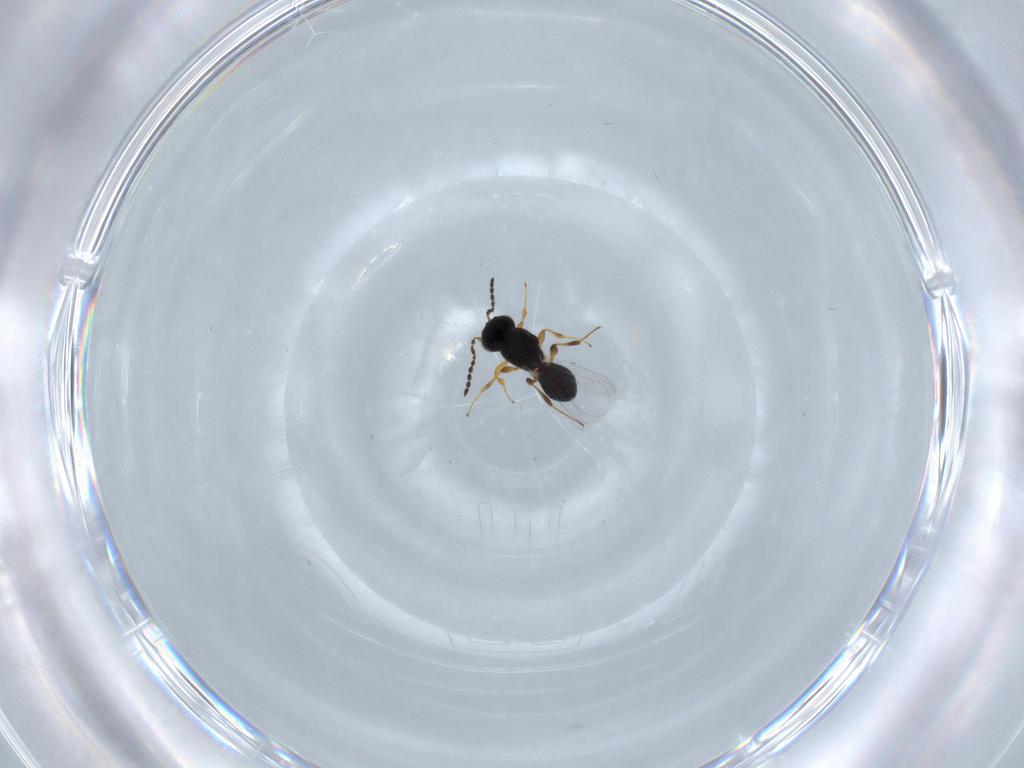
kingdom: Animalia
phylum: Arthropoda
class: Insecta
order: Hymenoptera
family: Platygastridae
